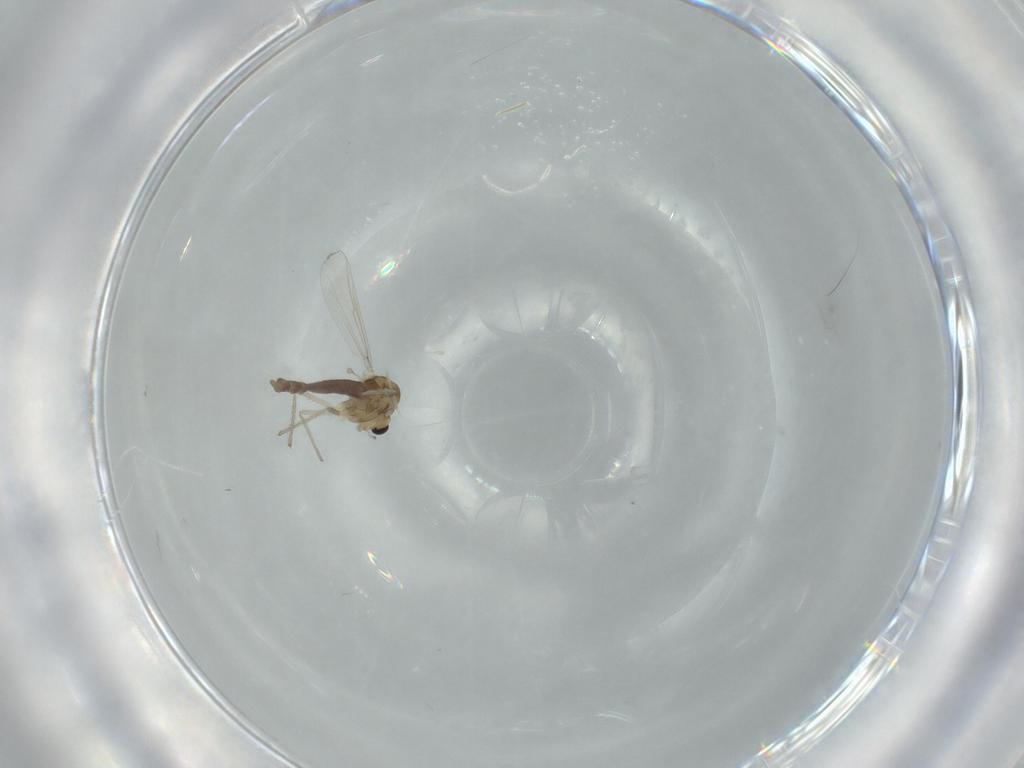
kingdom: Animalia
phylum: Arthropoda
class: Insecta
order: Diptera
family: Chironomidae
